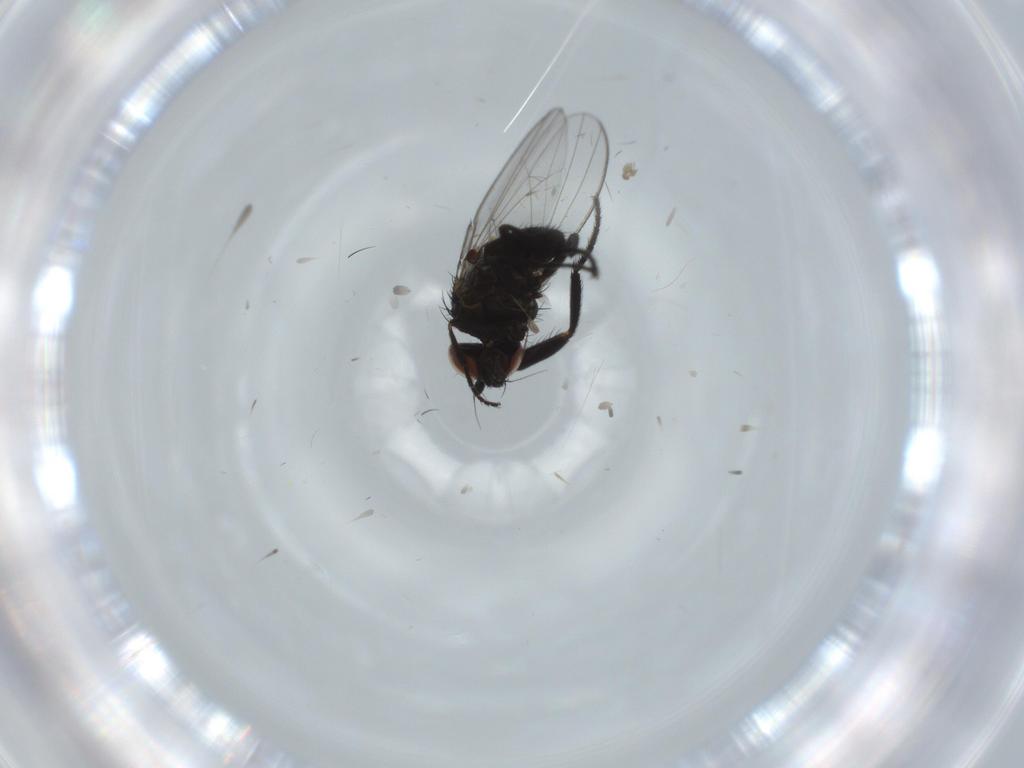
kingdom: Animalia
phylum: Arthropoda
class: Insecta
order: Diptera
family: Milichiidae
